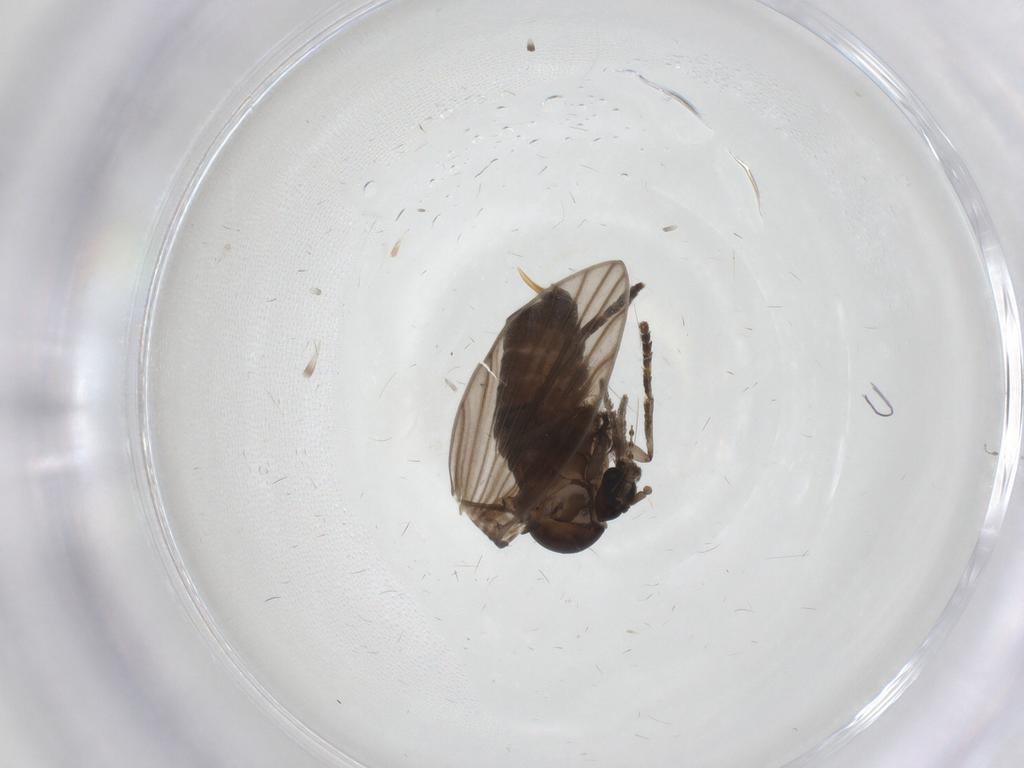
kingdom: Animalia
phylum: Arthropoda
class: Insecta
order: Diptera
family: Psychodidae
